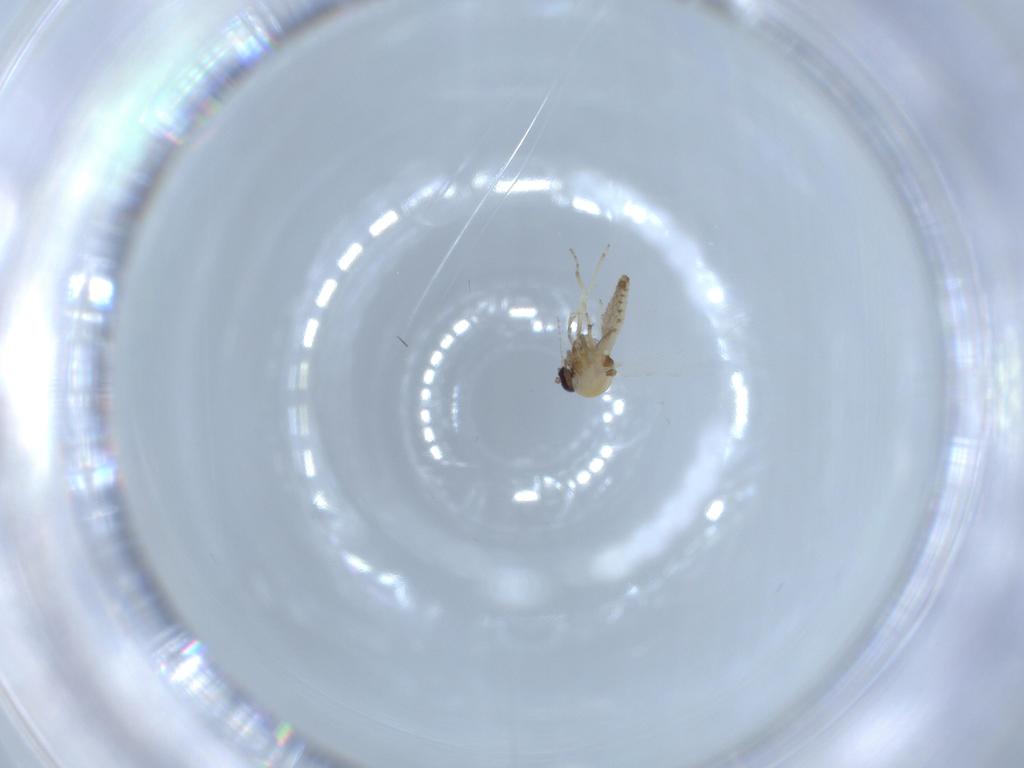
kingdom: Animalia
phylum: Arthropoda
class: Insecta
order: Diptera
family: Ceratopogonidae
